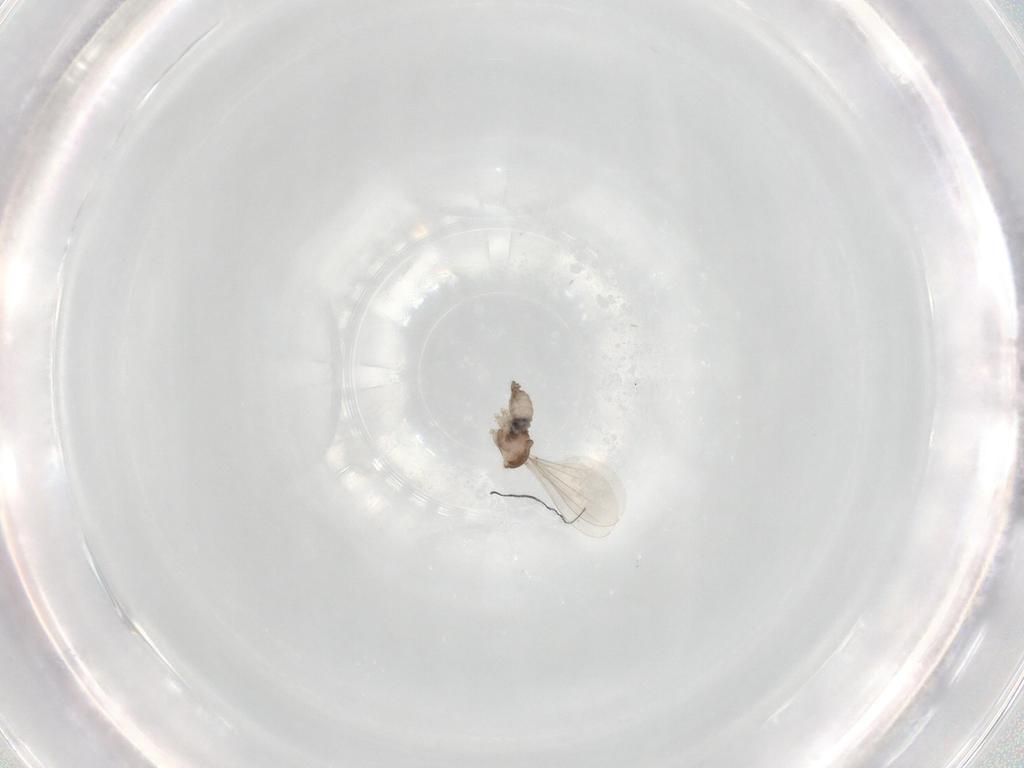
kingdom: Animalia
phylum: Arthropoda
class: Insecta
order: Diptera
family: Cecidomyiidae
